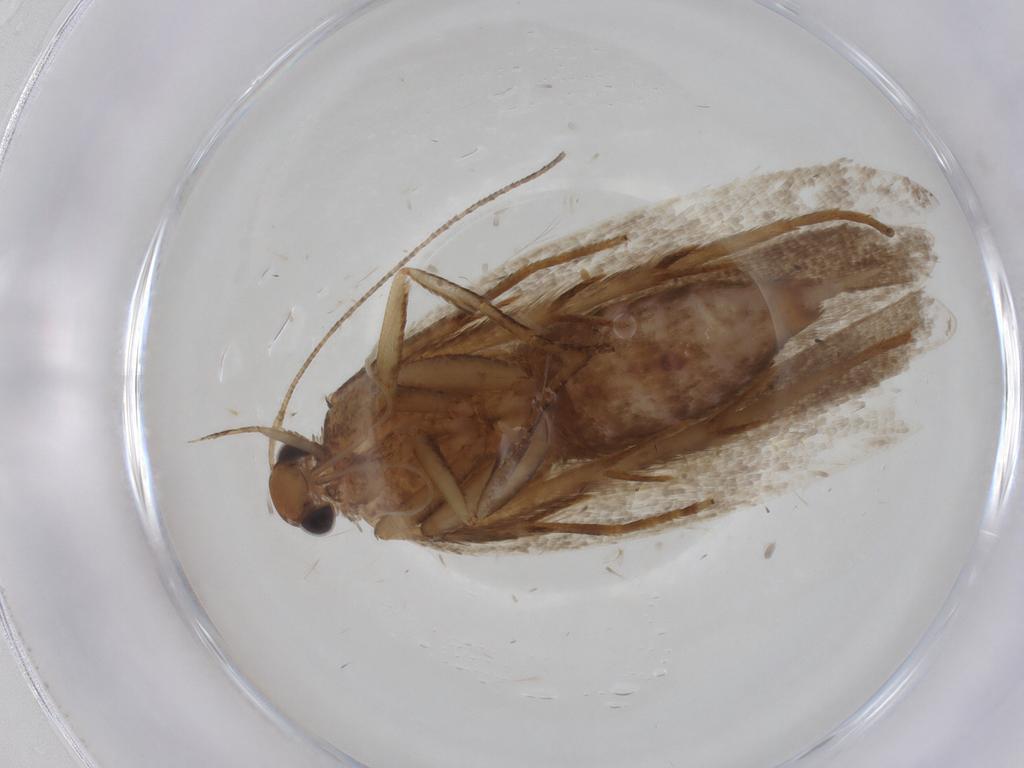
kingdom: Animalia
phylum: Arthropoda
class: Insecta
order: Lepidoptera
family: Gelechiidae
